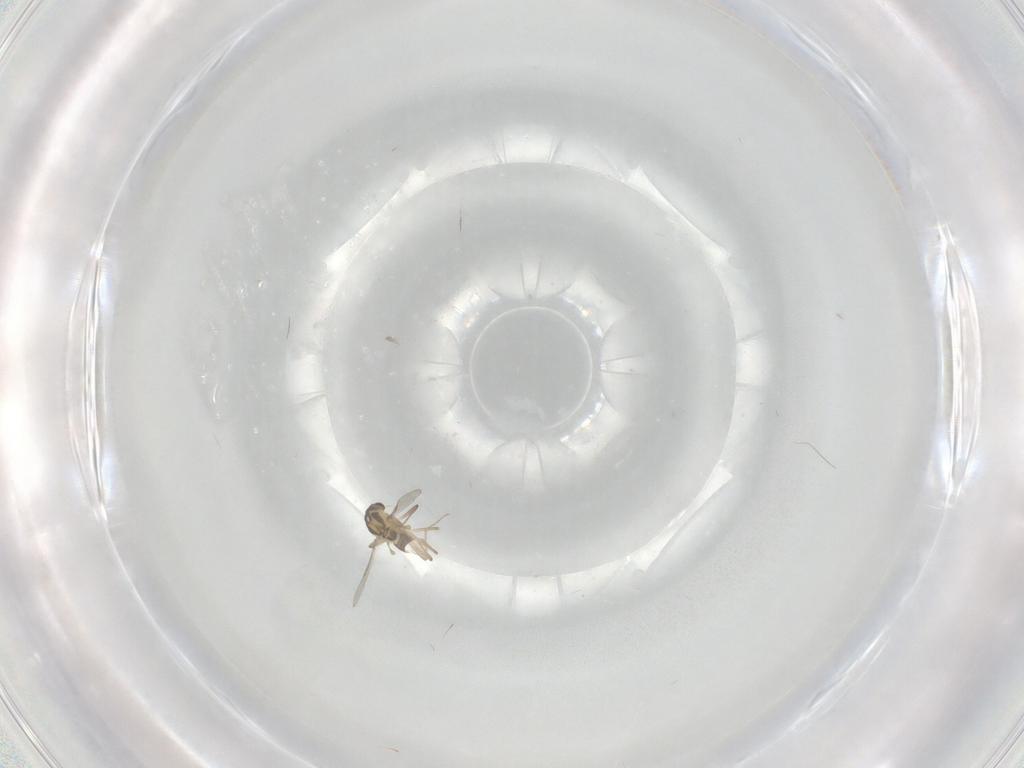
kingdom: Animalia
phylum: Arthropoda
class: Insecta
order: Diptera
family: Chironomidae
